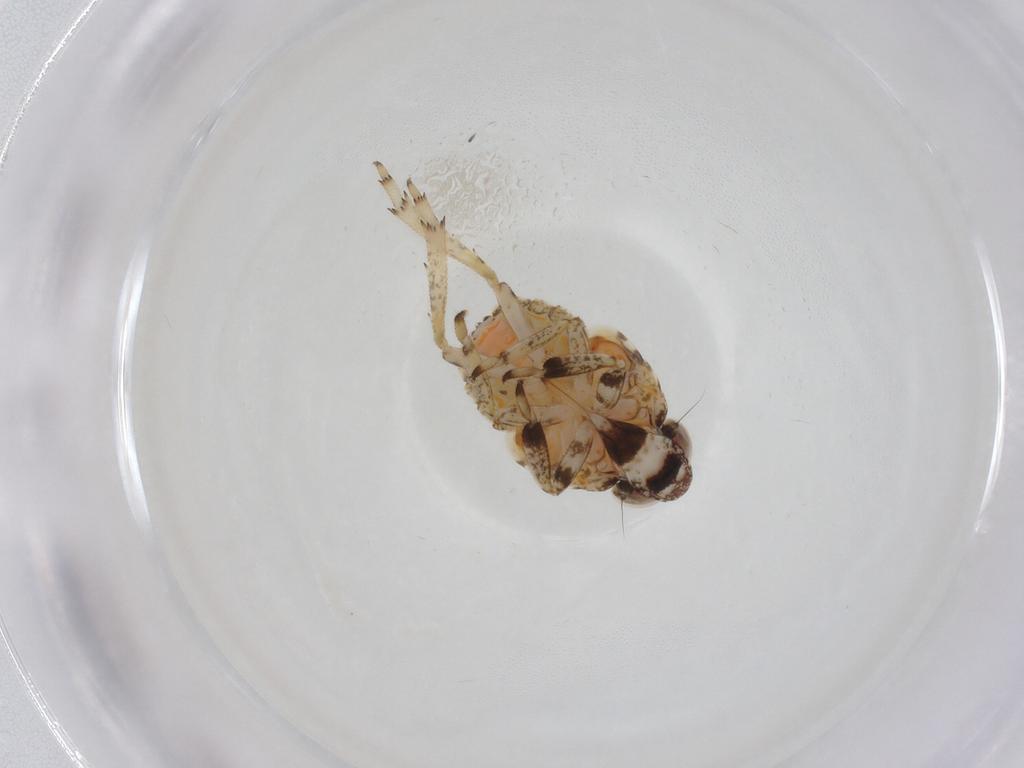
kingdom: Animalia
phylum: Arthropoda
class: Insecta
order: Hemiptera
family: Issidae
